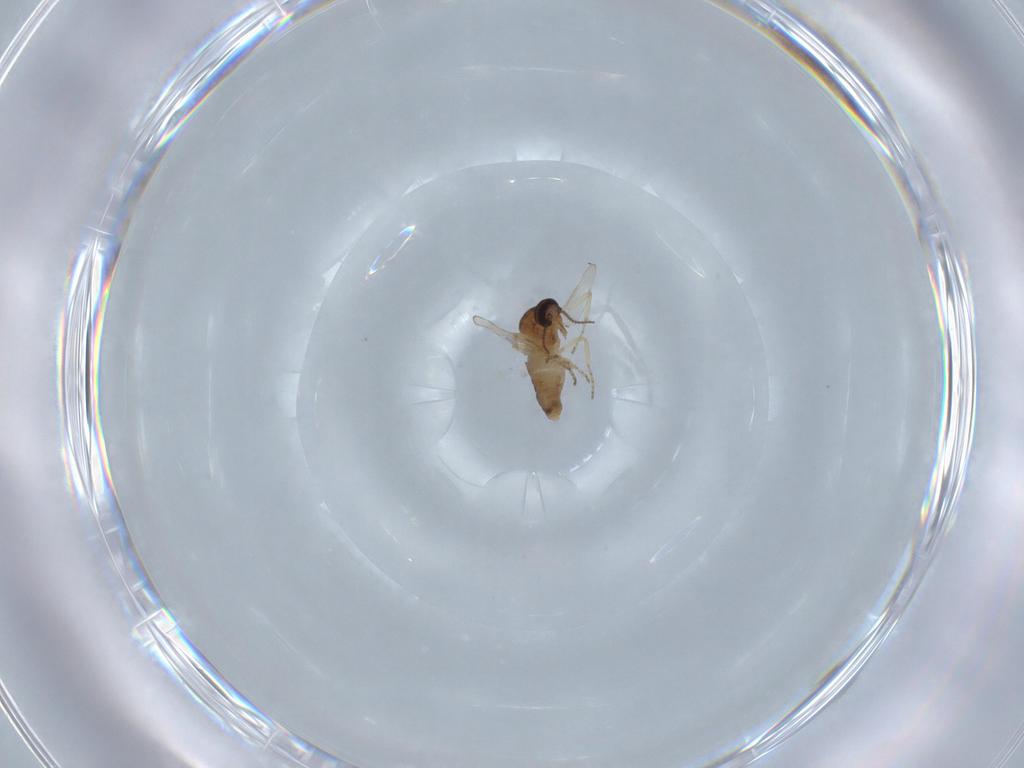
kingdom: Animalia
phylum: Arthropoda
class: Insecta
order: Diptera
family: Ceratopogonidae
